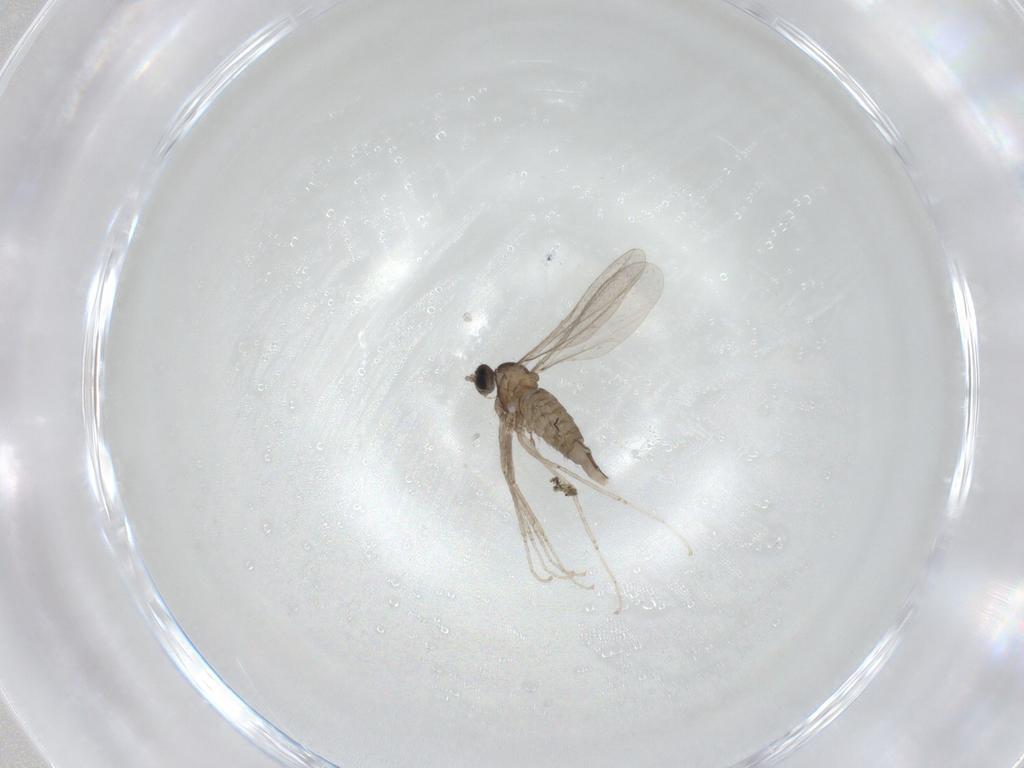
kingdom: Animalia
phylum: Arthropoda
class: Insecta
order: Diptera
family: Cecidomyiidae
